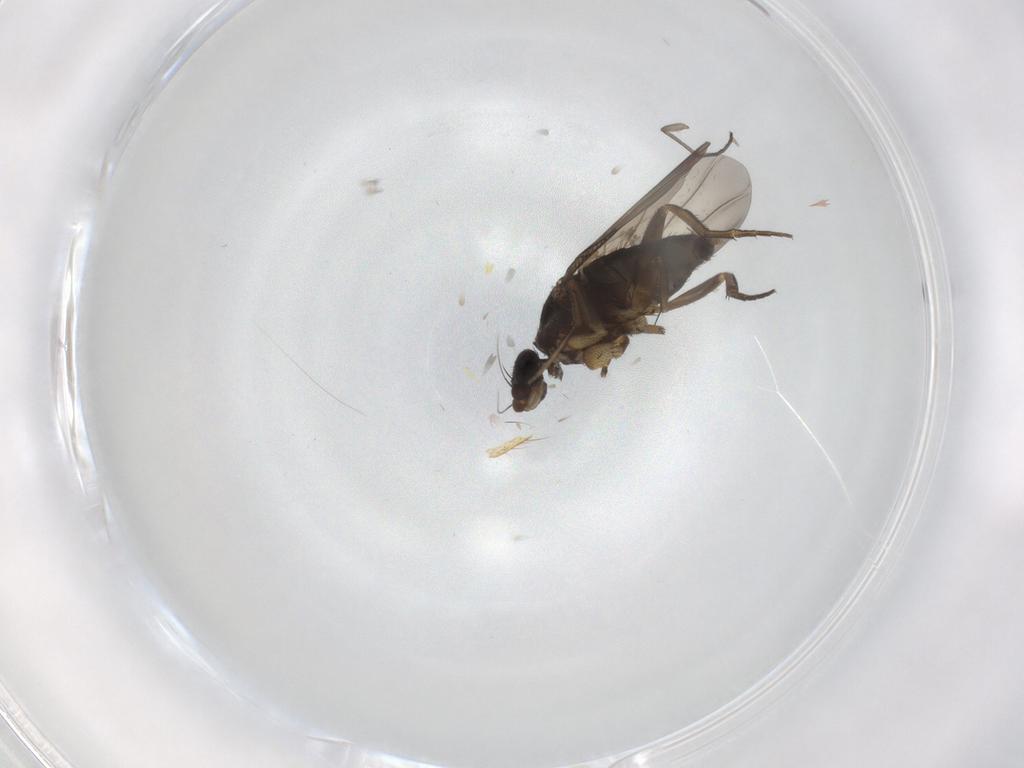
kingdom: Animalia
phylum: Arthropoda
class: Insecta
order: Diptera
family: Phoridae
